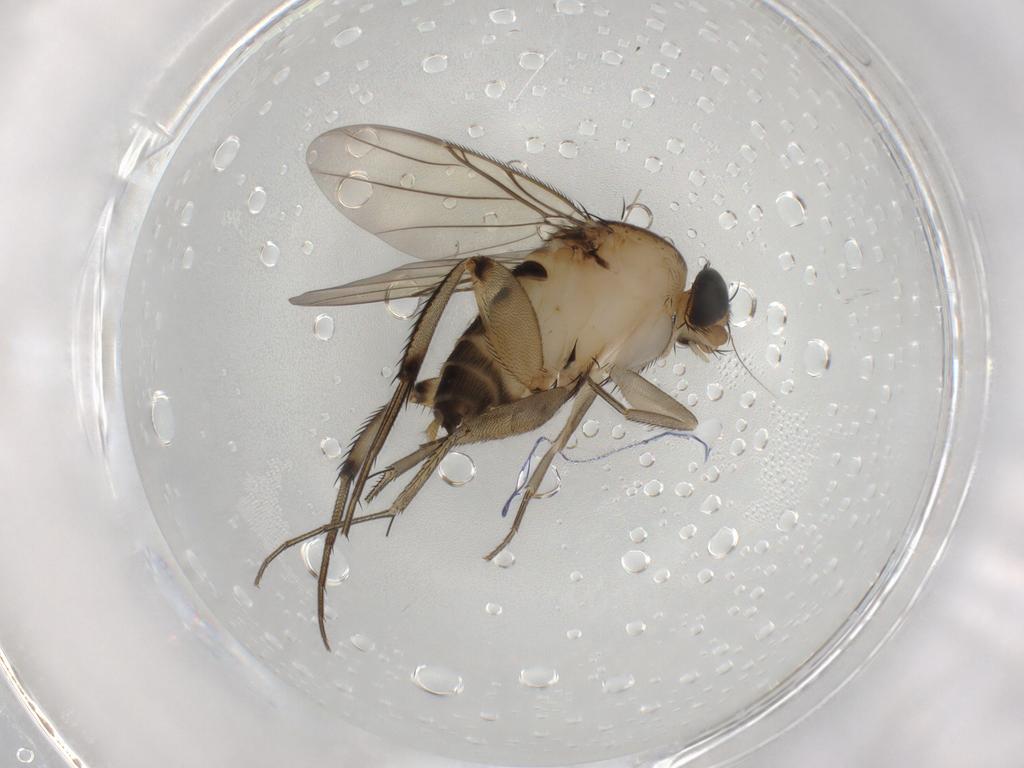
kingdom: Animalia
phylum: Arthropoda
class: Insecta
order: Diptera
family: Phoridae
